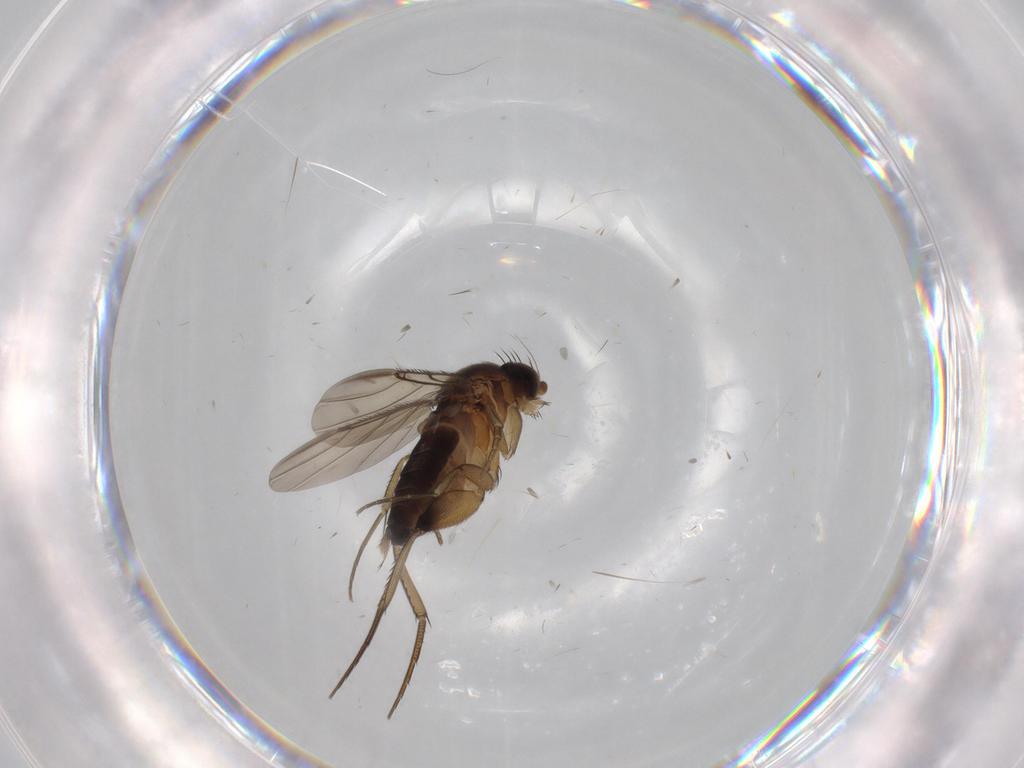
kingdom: Animalia
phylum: Arthropoda
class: Insecta
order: Diptera
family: Phoridae
